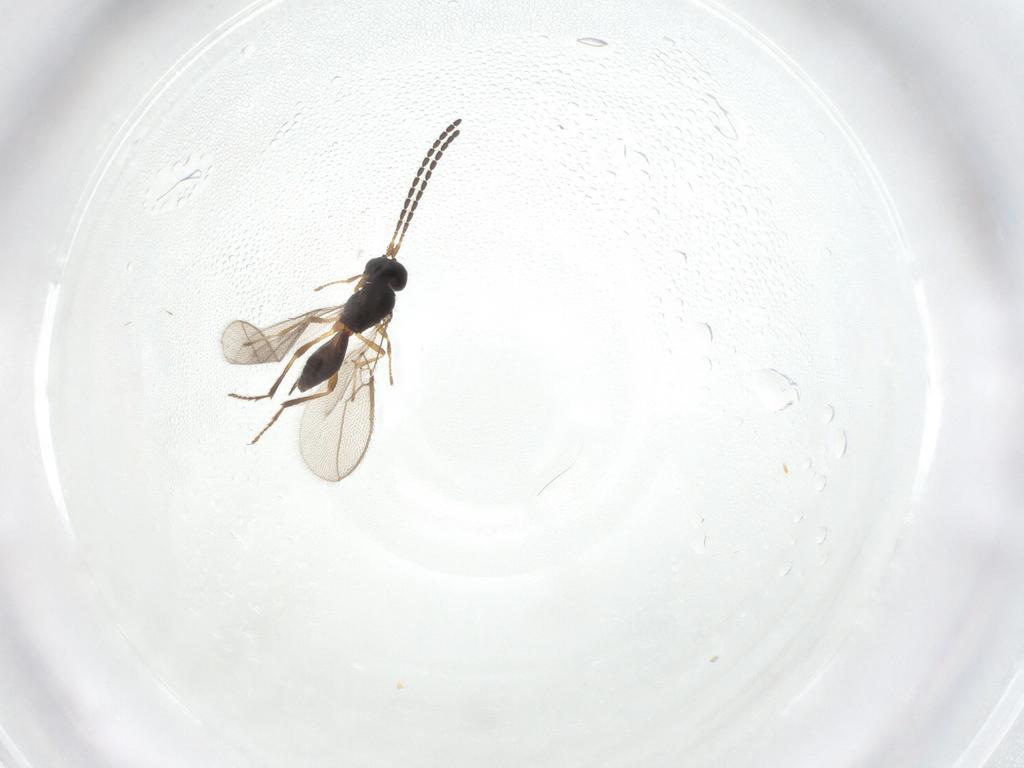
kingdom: Animalia
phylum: Arthropoda
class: Insecta
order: Hymenoptera
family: Braconidae
